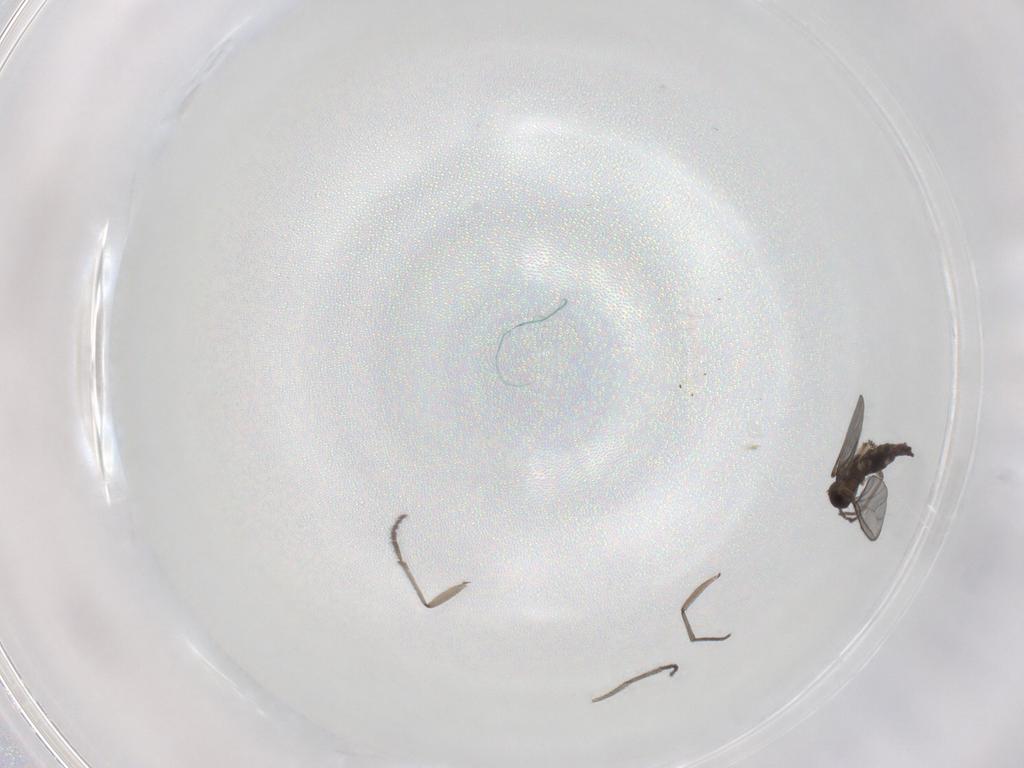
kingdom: Animalia
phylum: Arthropoda
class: Insecta
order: Diptera
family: Sciaridae
